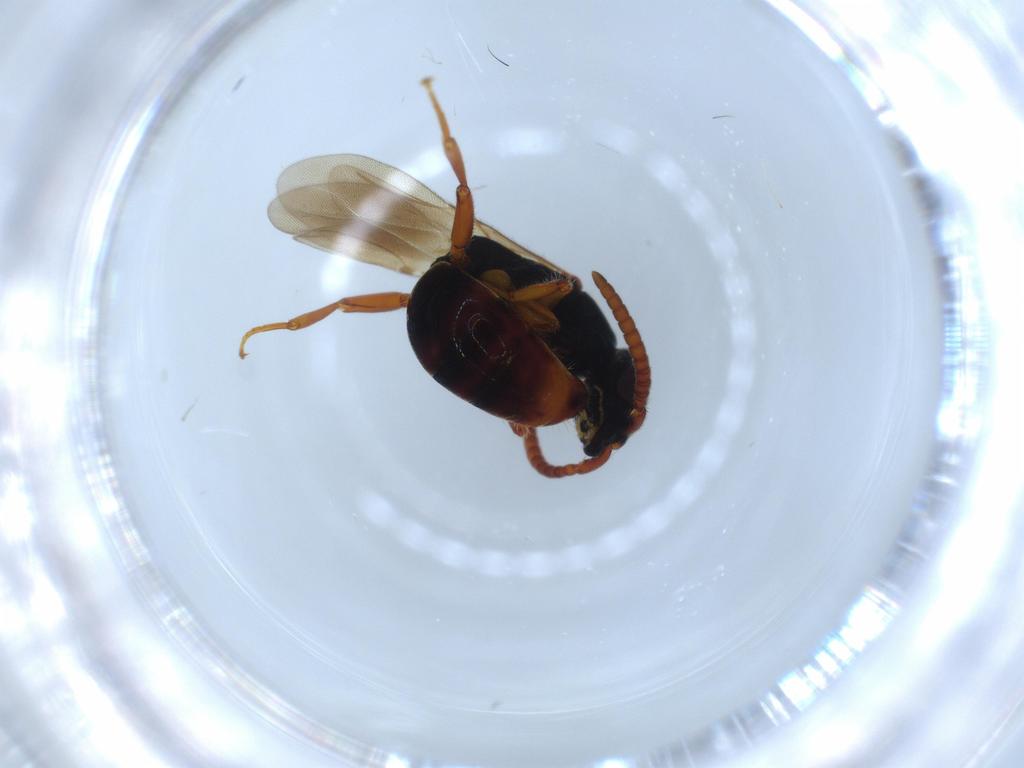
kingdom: Animalia
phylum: Arthropoda
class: Insecta
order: Hymenoptera
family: Bethylidae
